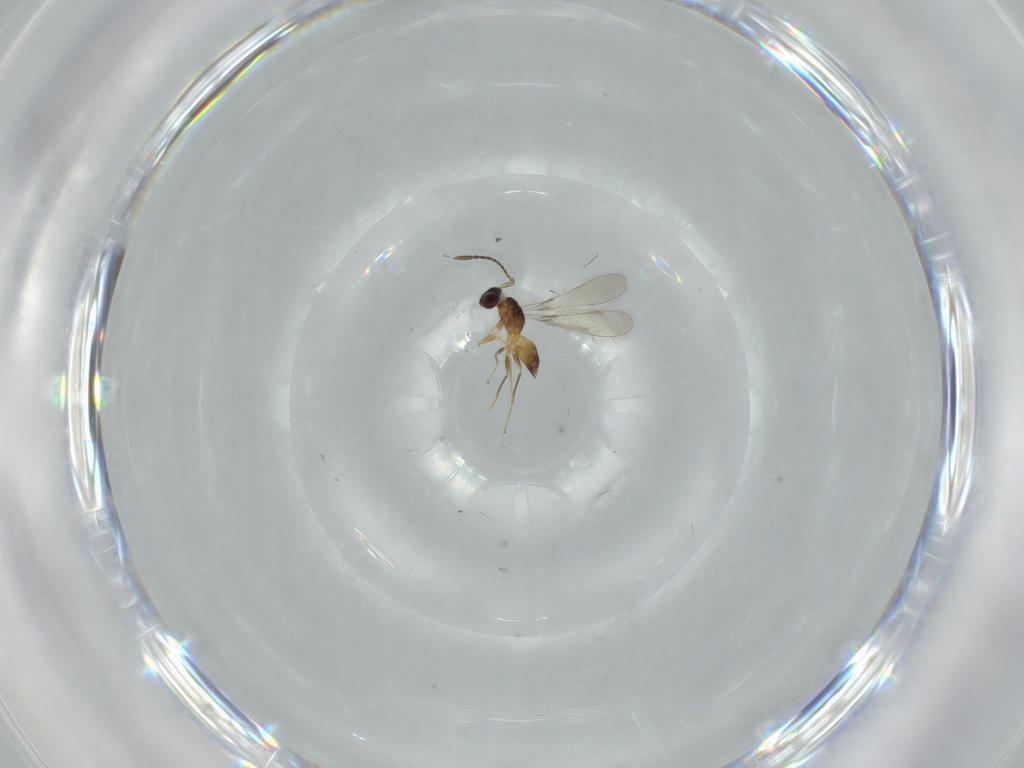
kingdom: Animalia
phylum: Arthropoda
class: Insecta
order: Hymenoptera
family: Mymaridae
